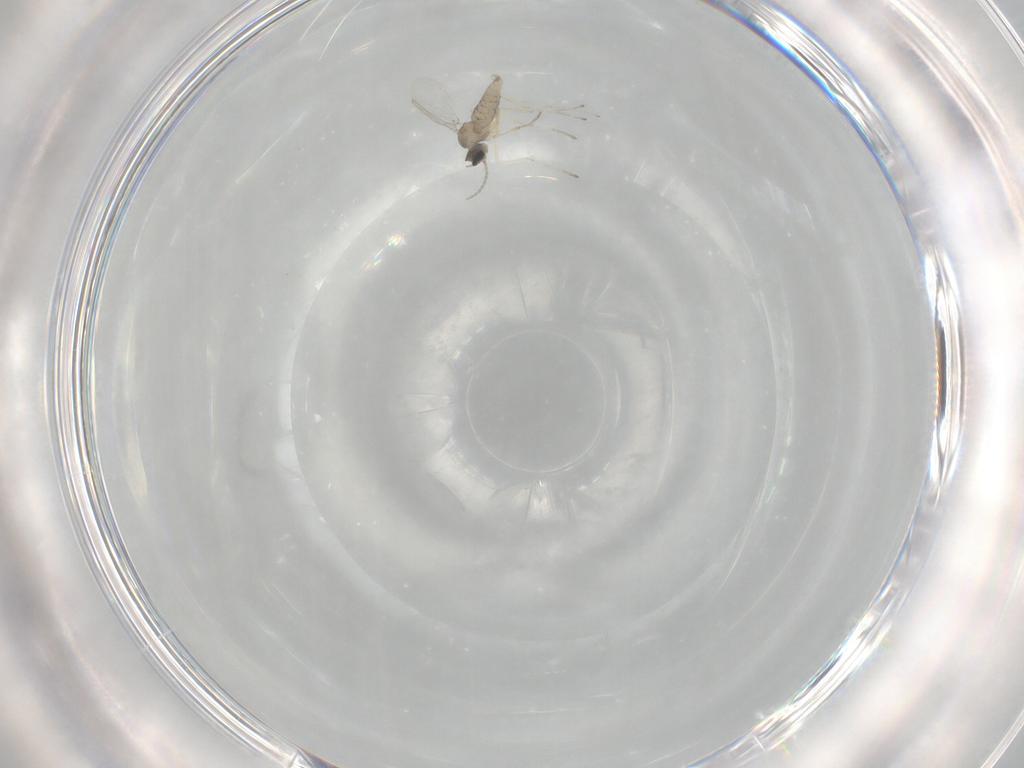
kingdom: Animalia
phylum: Arthropoda
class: Insecta
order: Diptera
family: Cecidomyiidae
